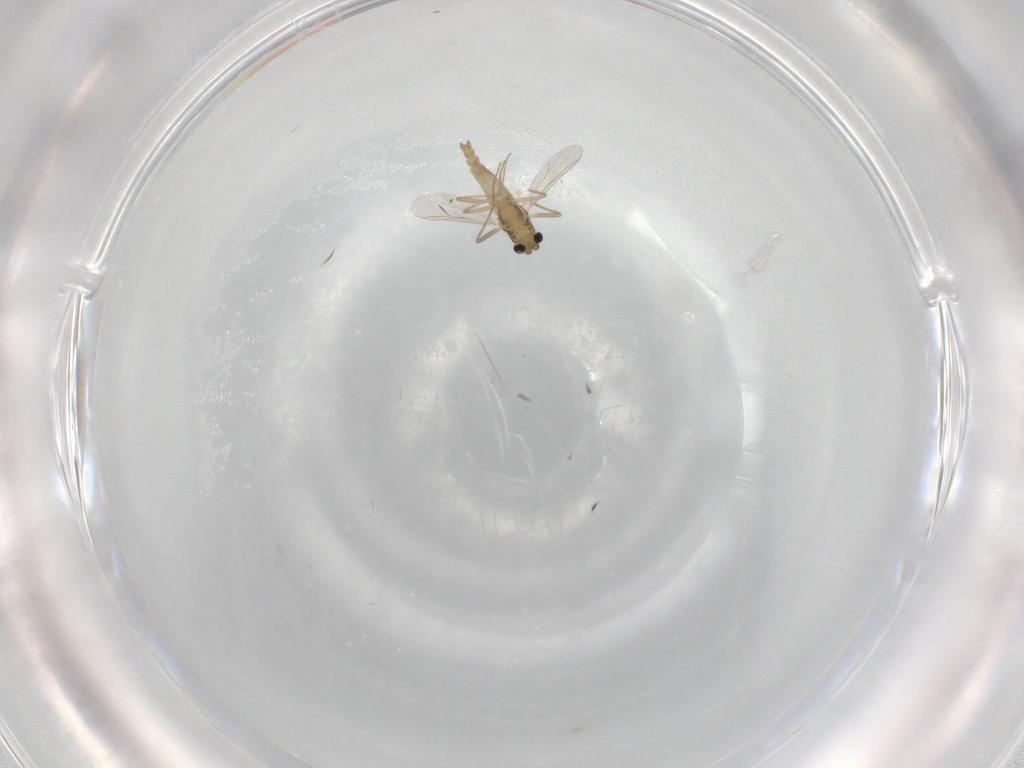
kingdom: Animalia
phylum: Arthropoda
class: Insecta
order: Diptera
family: Chironomidae
